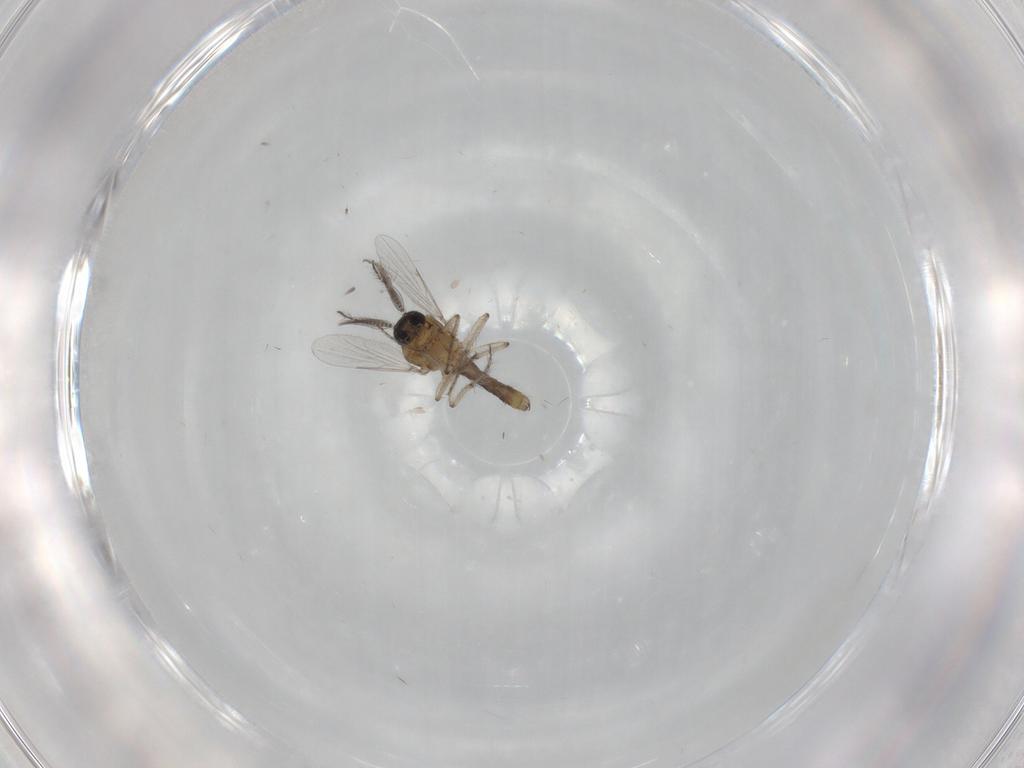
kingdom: Animalia
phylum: Arthropoda
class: Insecta
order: Diptera
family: Ceratopogonidae
